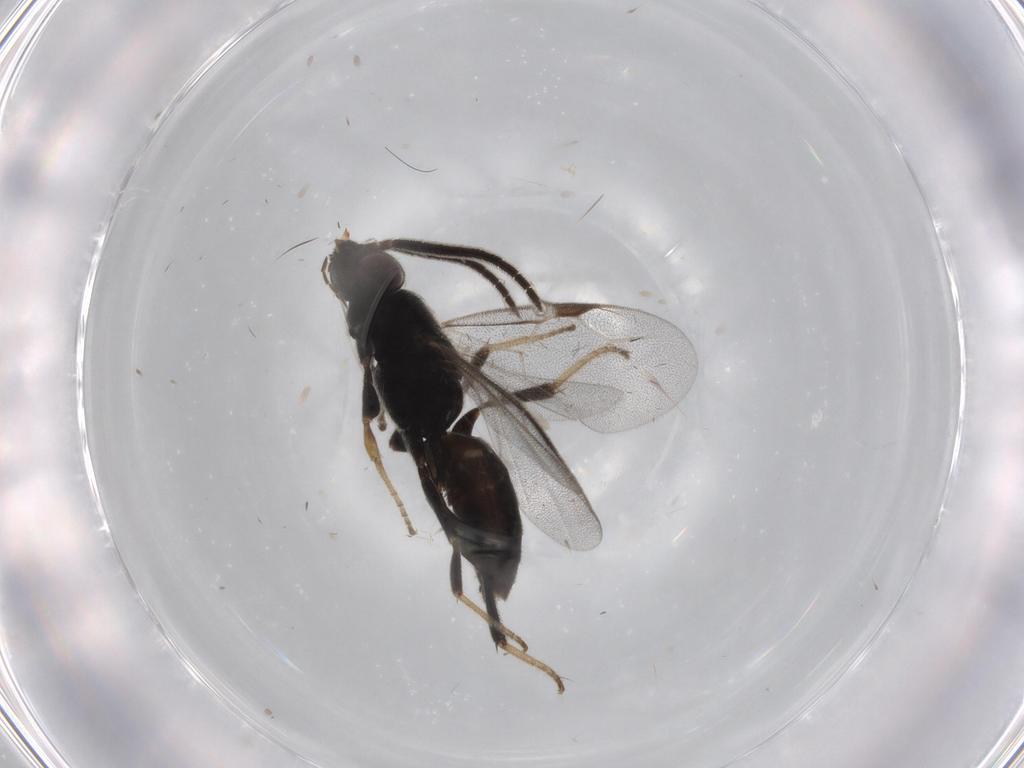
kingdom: Animalia
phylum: Arthropoda
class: Insecta
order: Hymenoptera
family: Dryinidae
